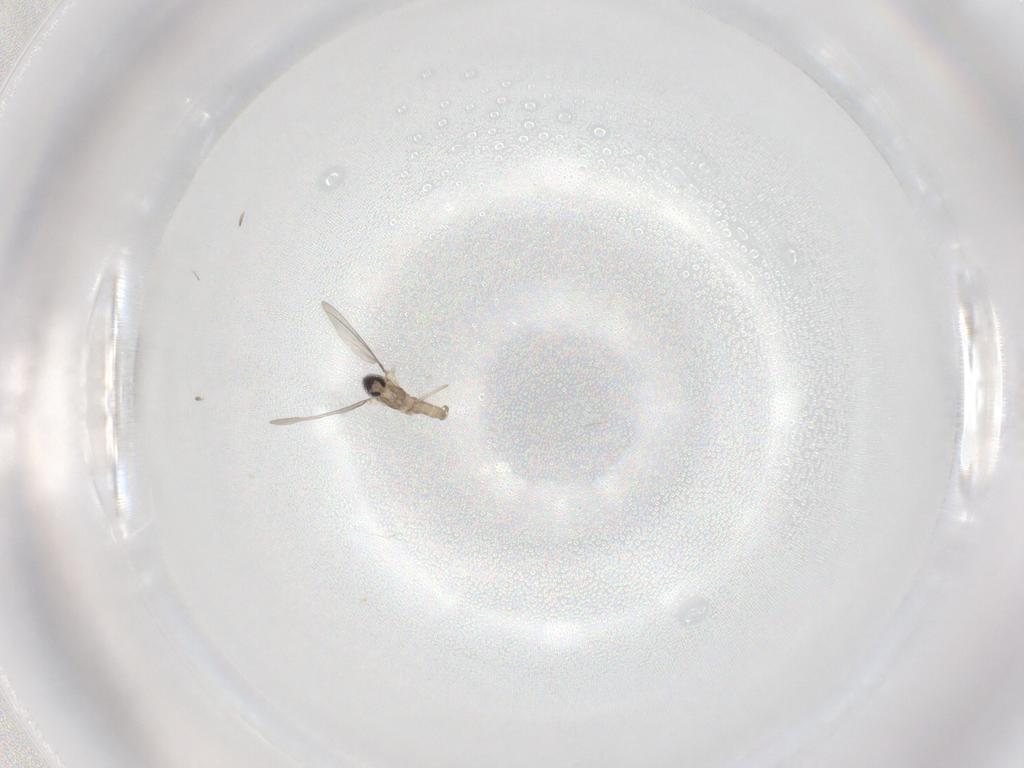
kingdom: Animalia
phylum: Arthropoda
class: Insecta
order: Diptera
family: Cecidomyiidae
